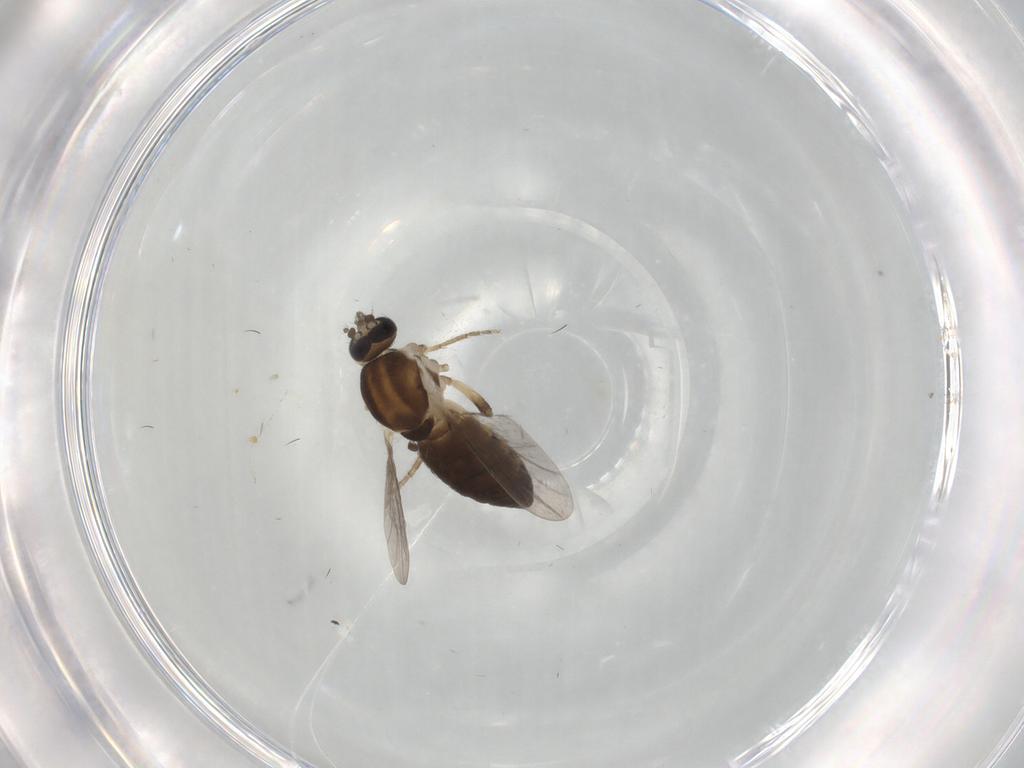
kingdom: Animalia
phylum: Arthropoda
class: Insecta
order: Diptera
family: Ceratopogonidae
